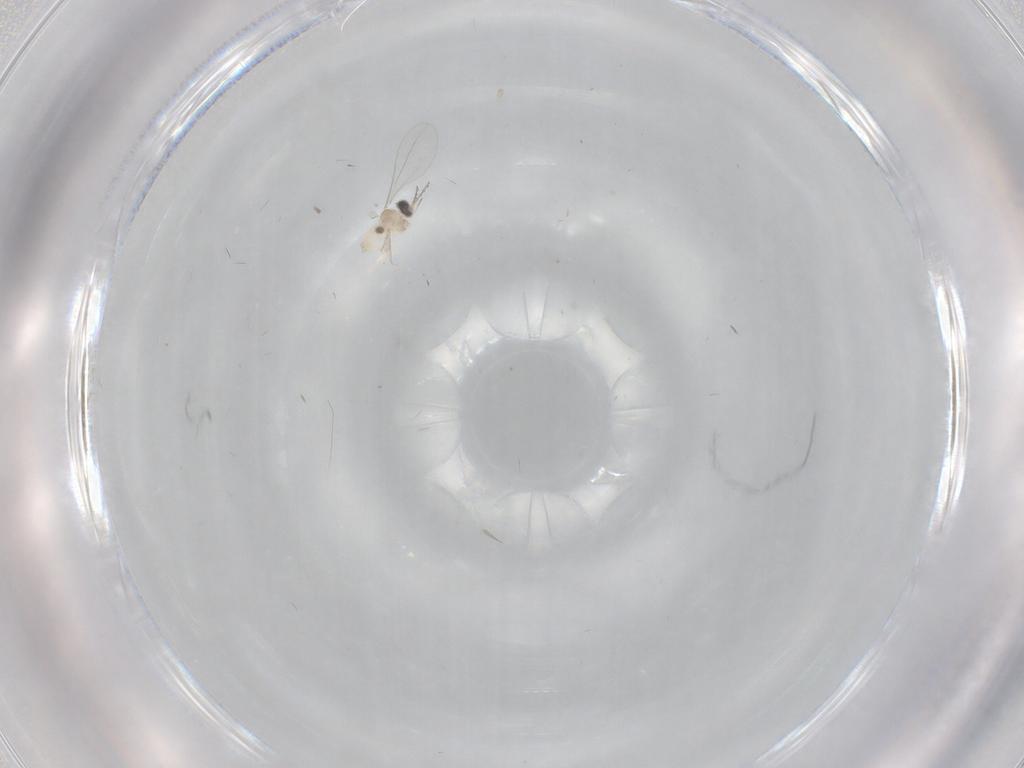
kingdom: Animalia
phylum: Arthropoda
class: Insecta
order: Diptera
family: Cecidomyiidae
